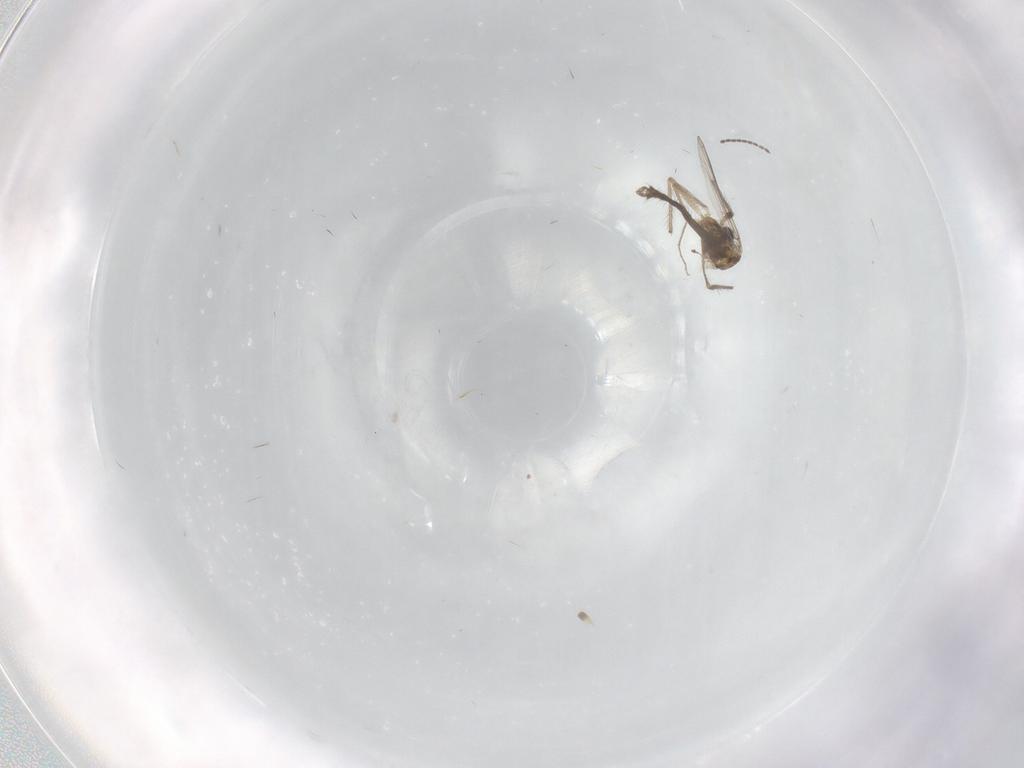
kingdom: Animalia
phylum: Arthropoda
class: Insecta
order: Diptera
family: Chironomidae
